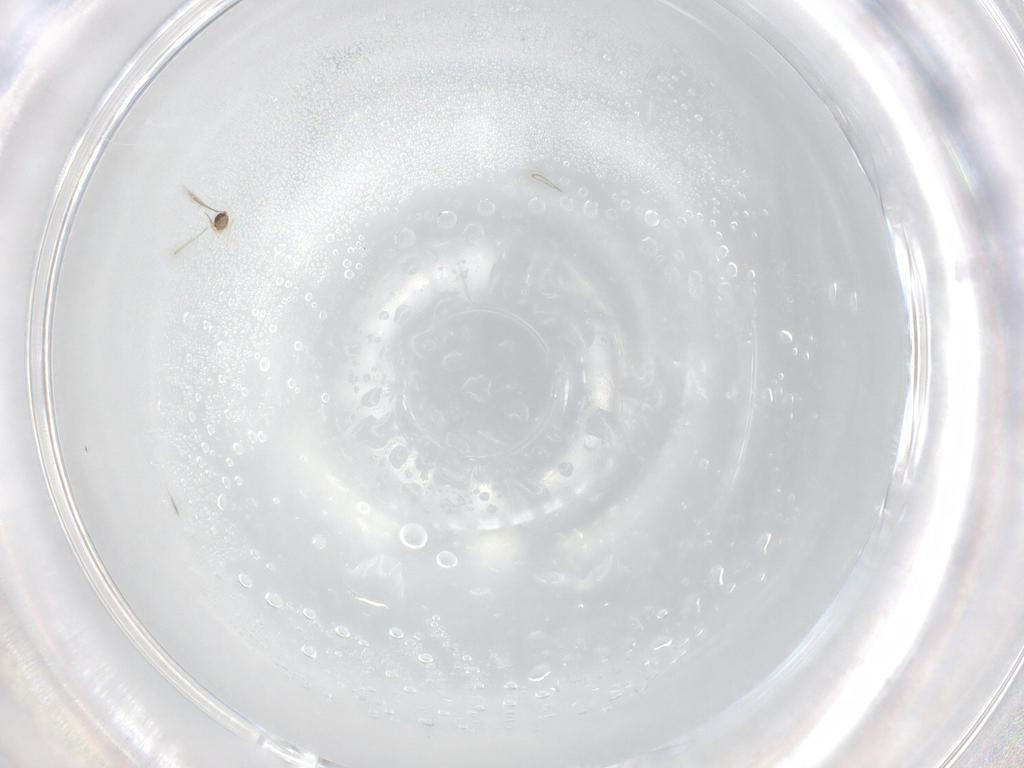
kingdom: Animalia
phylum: Arthropoda
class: Insecta
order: Hymenoptera
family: Mymaridae
